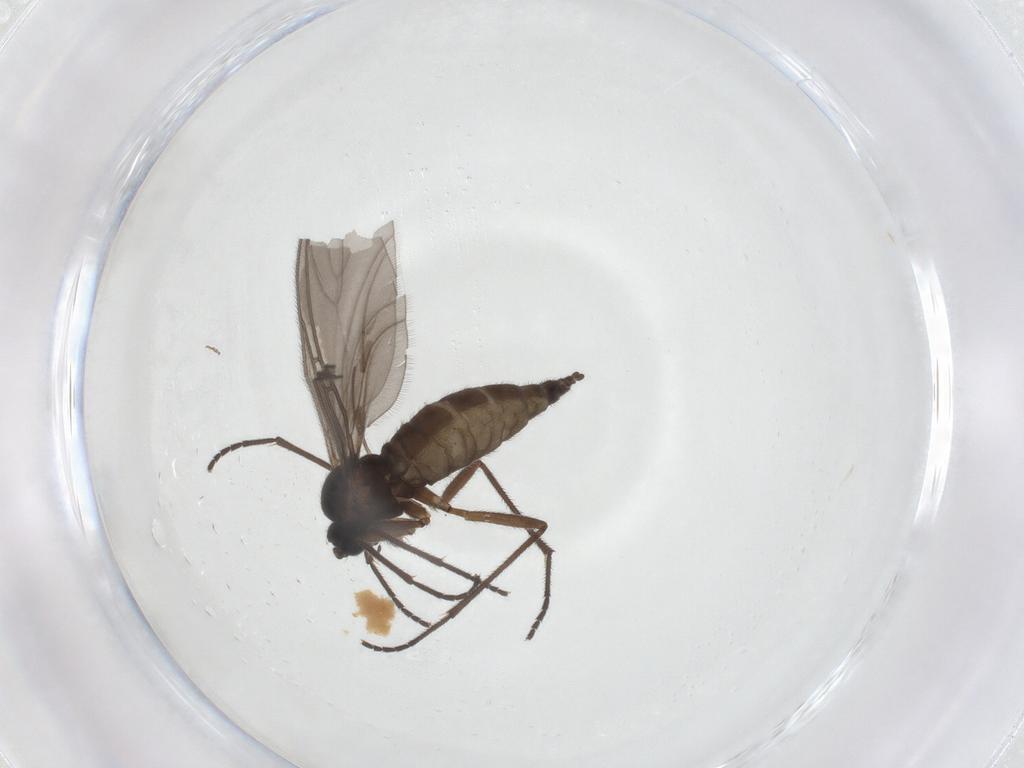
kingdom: Animalia
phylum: Arthropoda
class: Insecta
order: Diptera
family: Sciaridae
